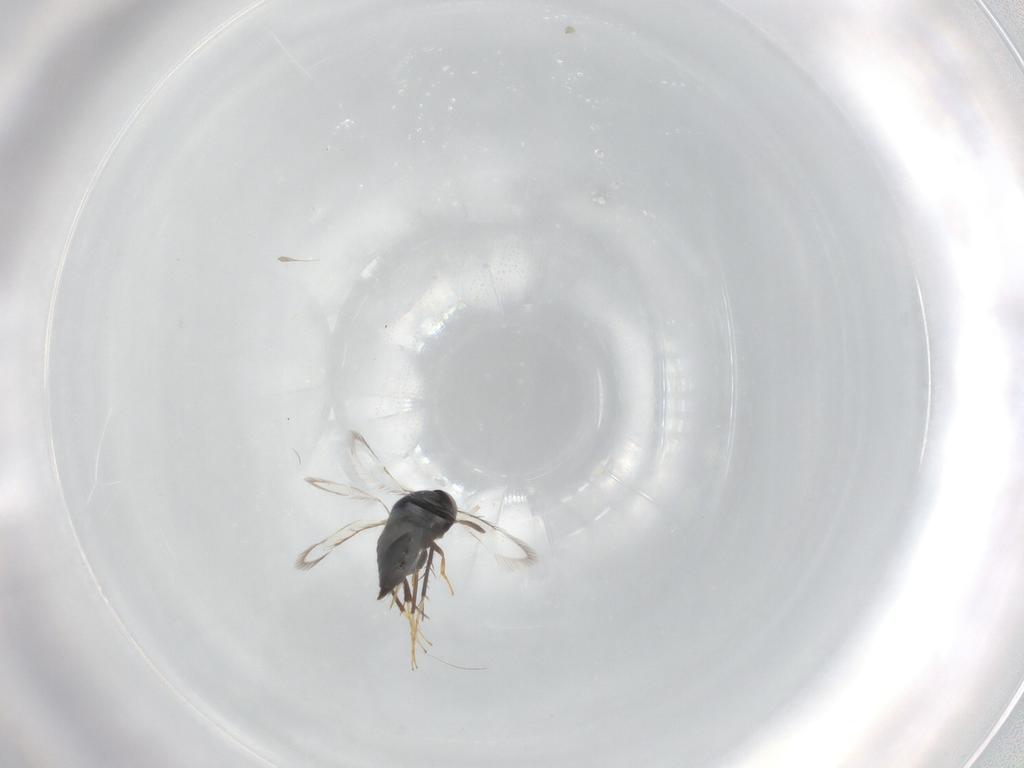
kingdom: Animalia
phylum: Arthropoda
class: Insecta
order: Hymenoptera
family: Signiphoridae
